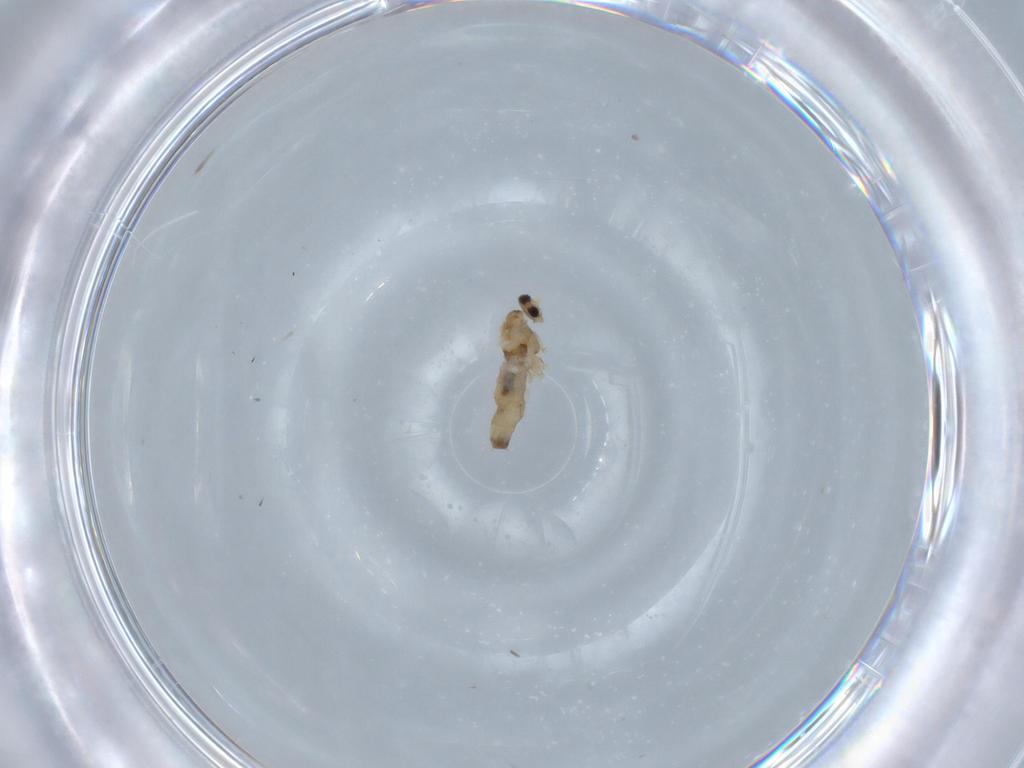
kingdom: Animalia
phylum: Arthropoda
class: Insecta
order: Diptera
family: Cecidomyiidae
